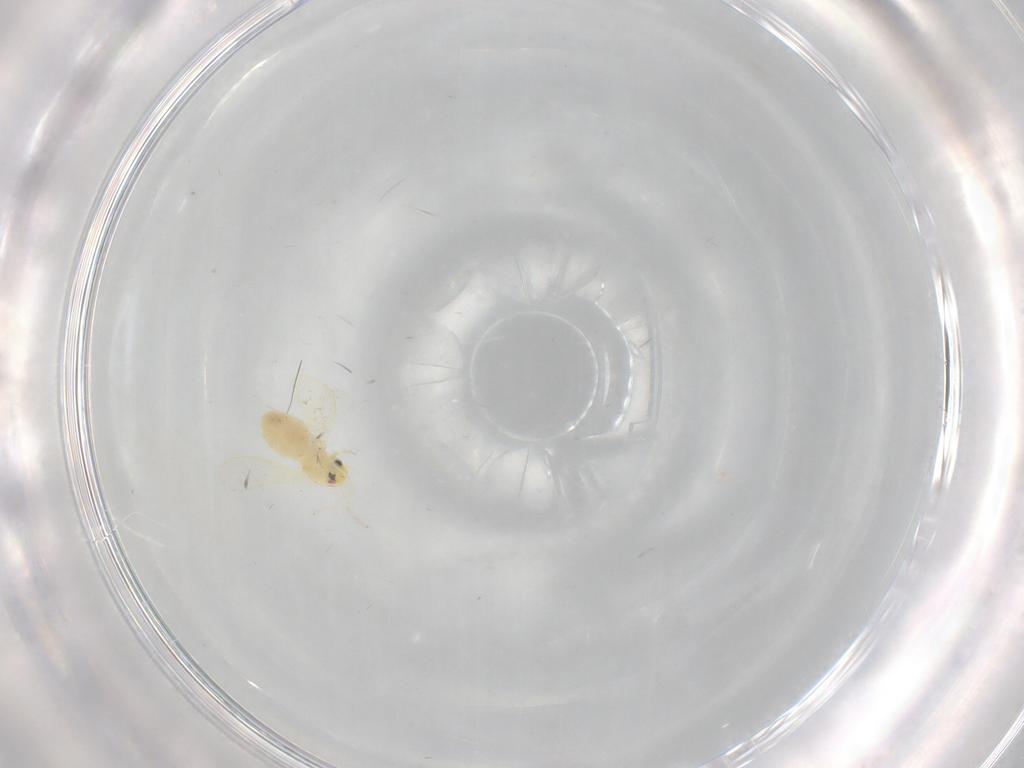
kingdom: Animalia
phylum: Arthropoda
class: Insecta
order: Hemiptera
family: Aleyrodidae
